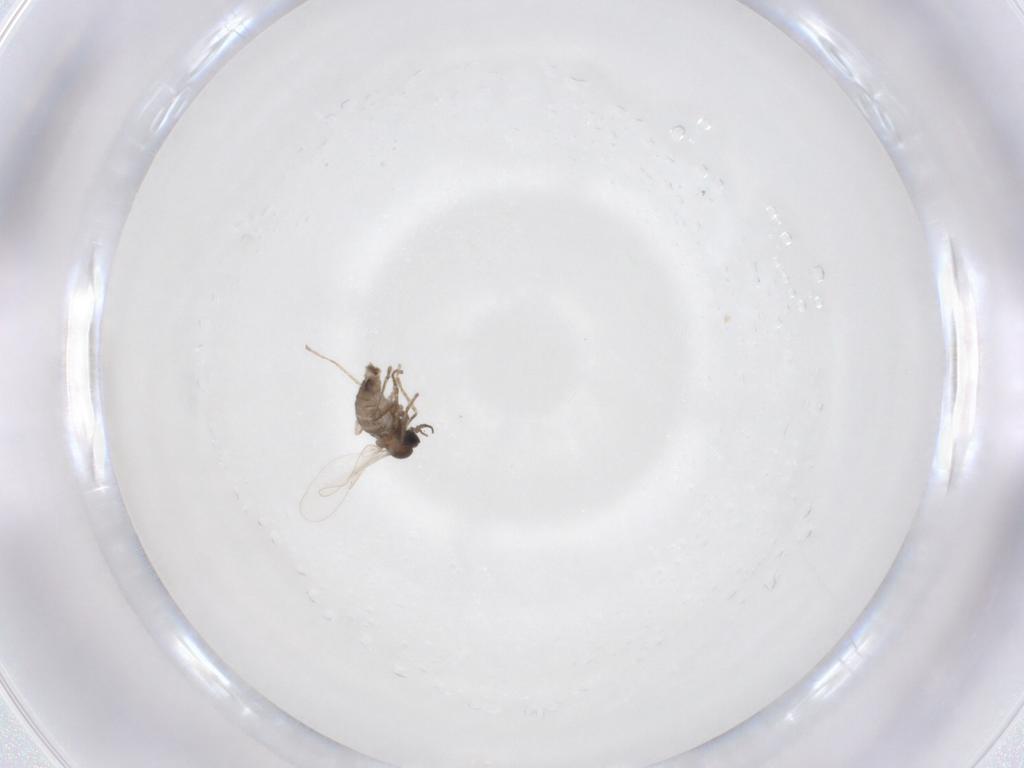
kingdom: Animalia
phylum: Arthropoda
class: Insecta
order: Diptera
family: Cecidomyiidae
